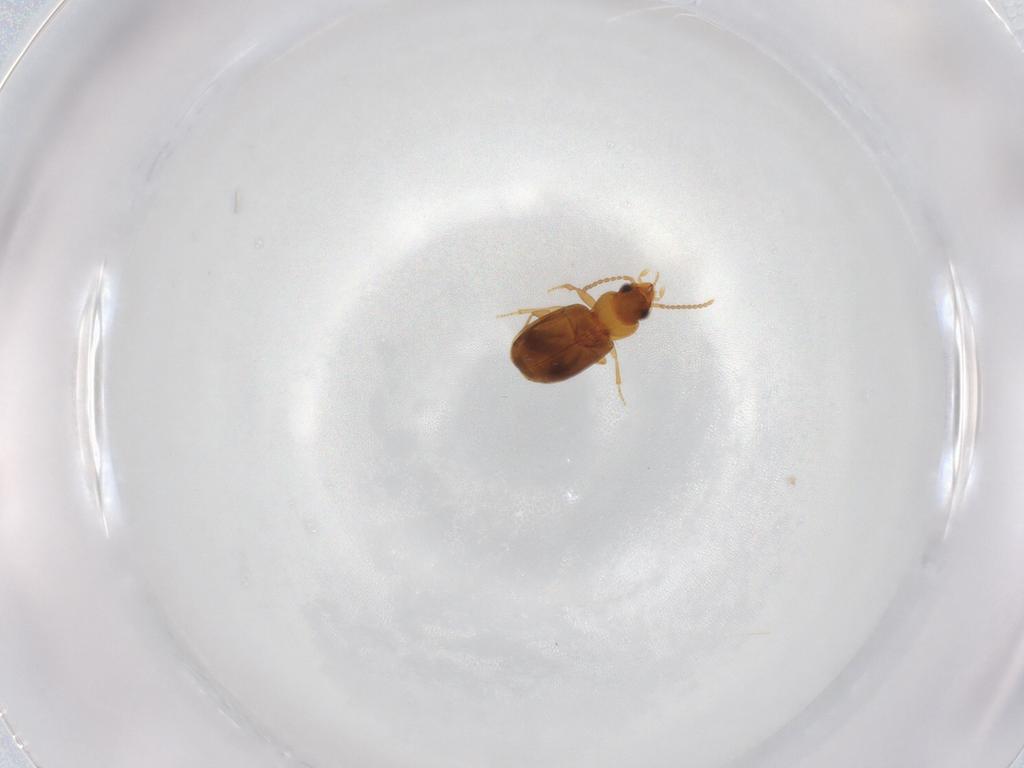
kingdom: Animalia
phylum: Arthropoda
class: Insecta
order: Coleoptera
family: Carabidae
